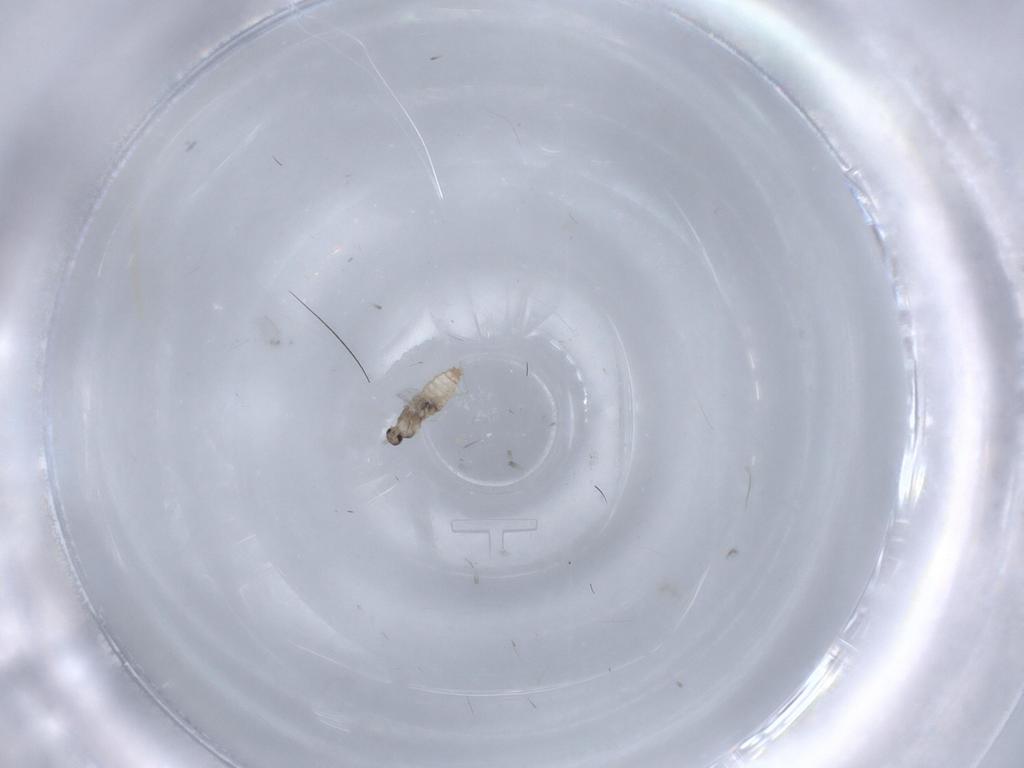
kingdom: Animalia
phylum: Arthropoda
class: Insecta
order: Diptera
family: Cecidomyiidae
